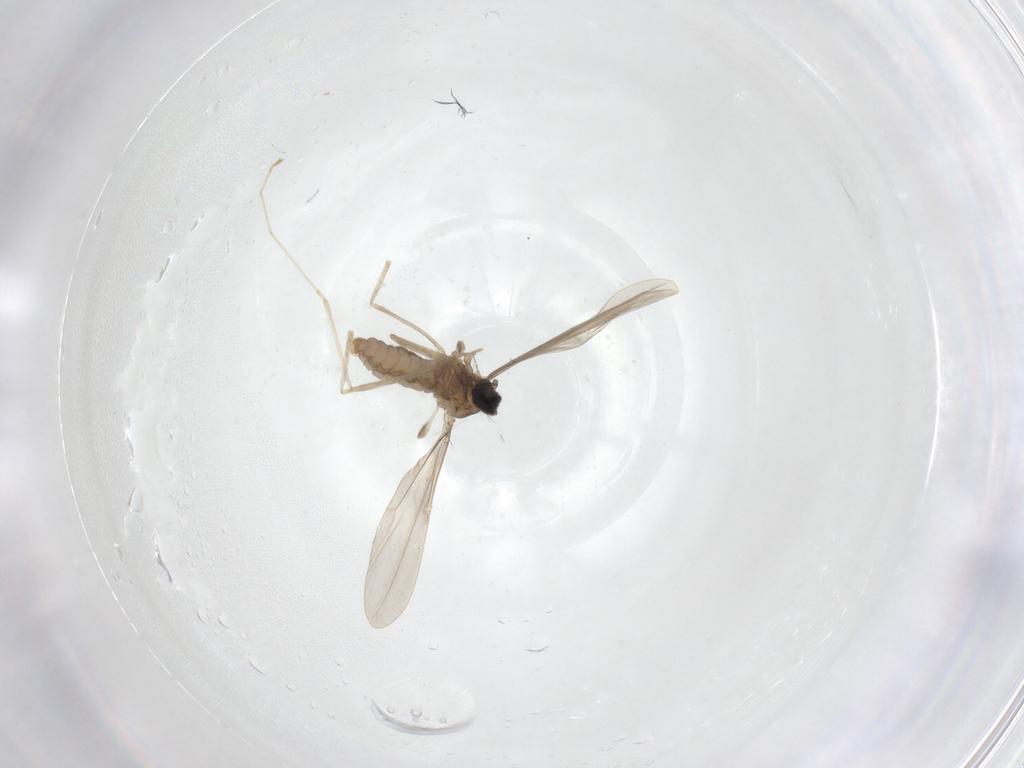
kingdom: Animalia
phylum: Arthropoda
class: Insecta
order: Diptera
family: Cecidomyiidae
